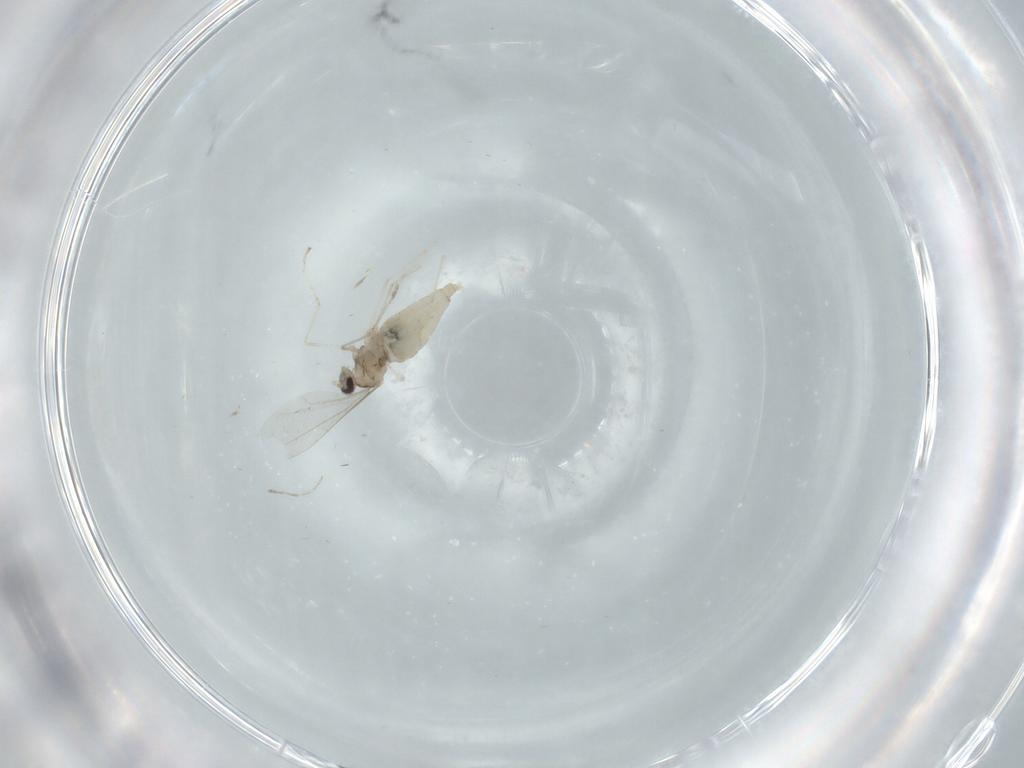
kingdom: Animalia
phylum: Arthropoda
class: Insecta
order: Diptera
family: Cecidomyiidae
